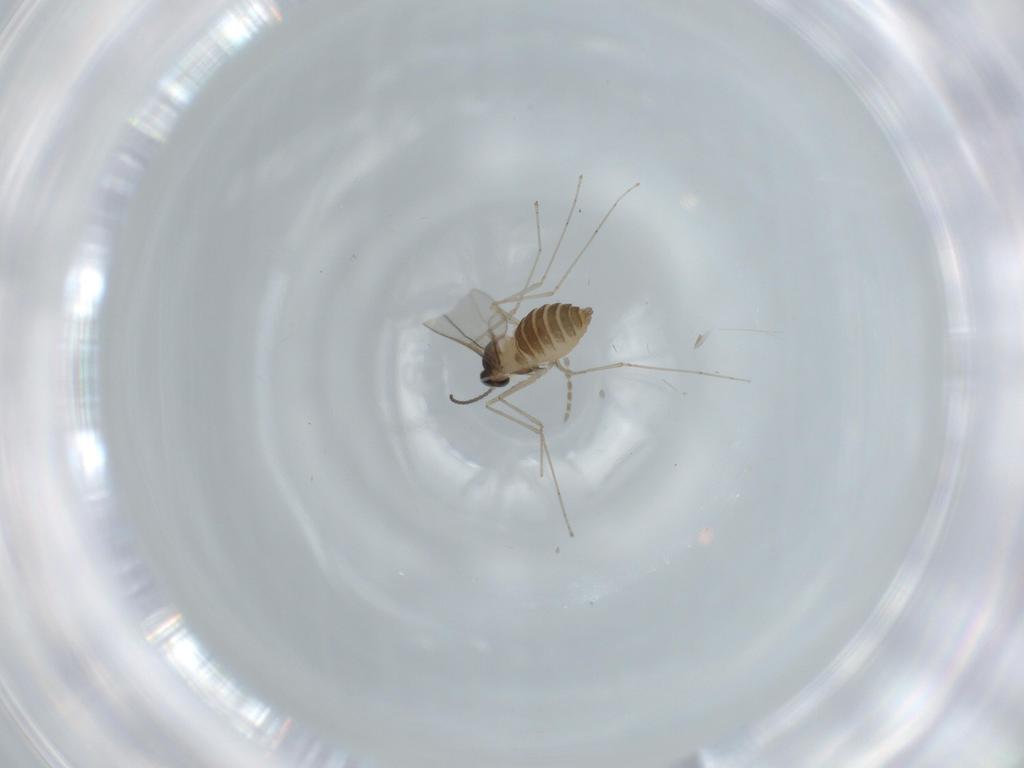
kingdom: Animalia
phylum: Arthropoda
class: Insecta
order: Diptera
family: Cecidomyiidae
